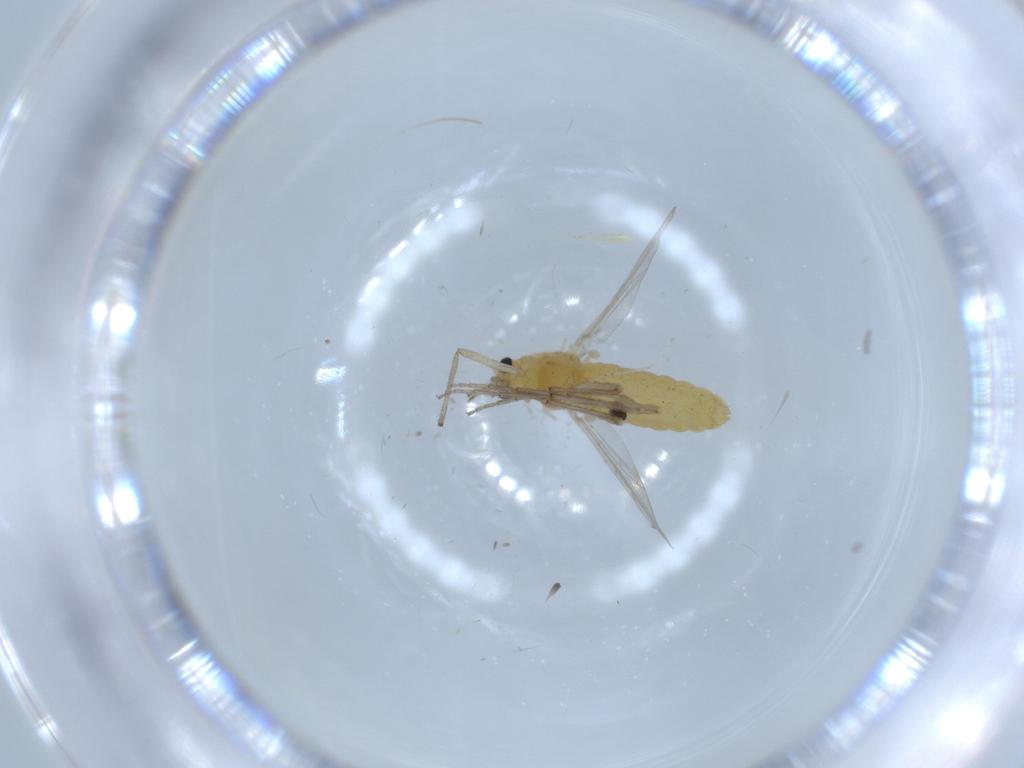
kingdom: Animalia
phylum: Arthropoda
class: Insecta
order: Diptera
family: Chironomidae
